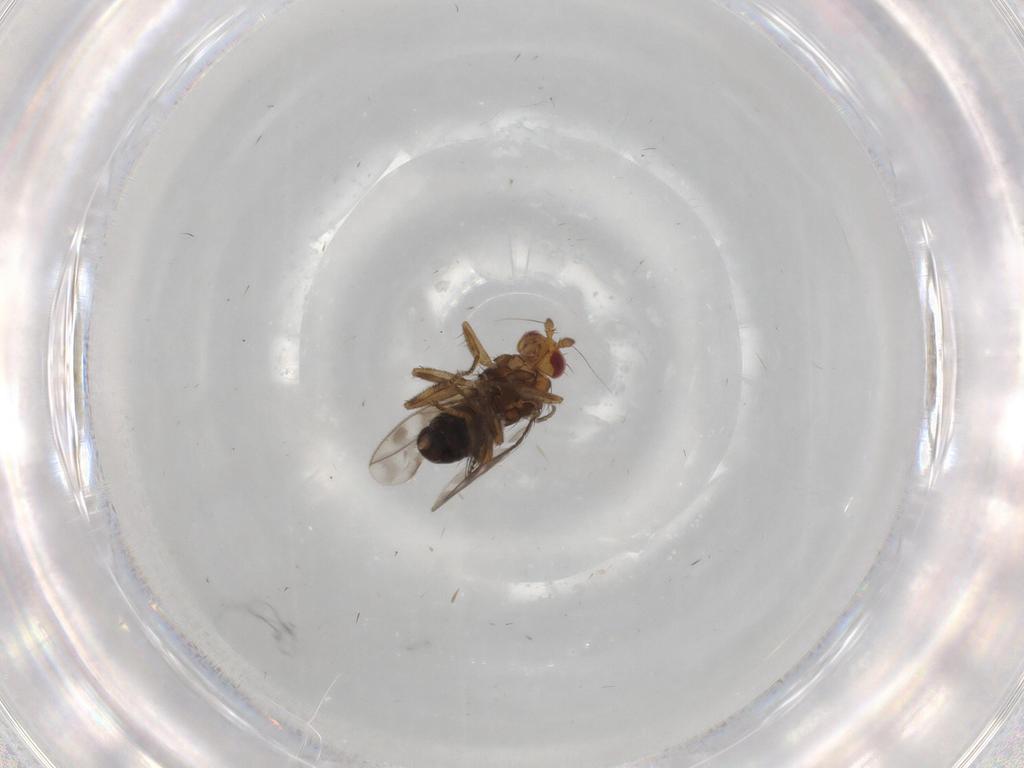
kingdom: Animalia
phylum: Arthropoda
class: Insecta
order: Diptera
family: Sphaeroceridae
